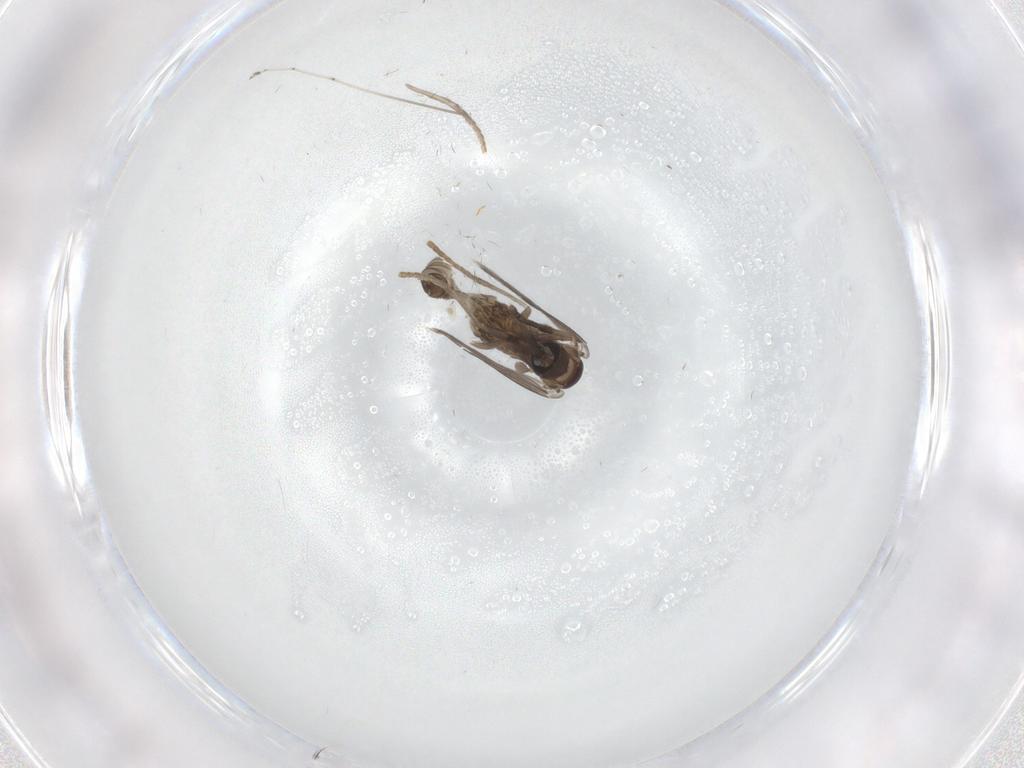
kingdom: Animalia
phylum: Arthropoda
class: Insecta
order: Diptera
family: Psychodidae
